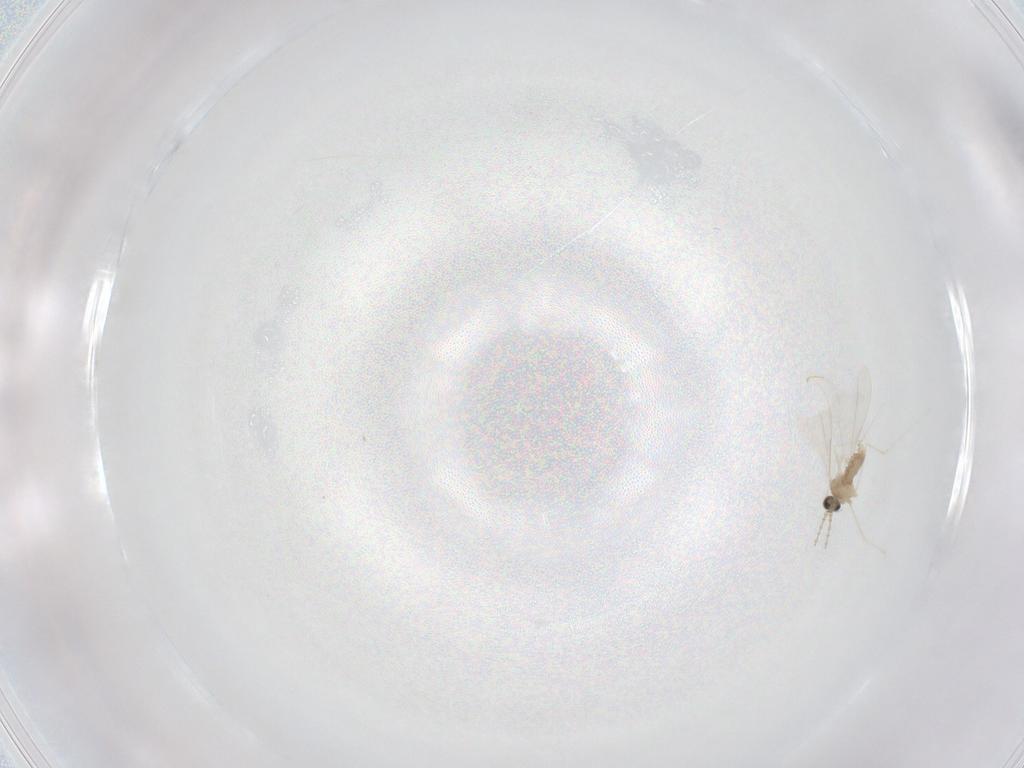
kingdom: Animalia
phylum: Arthropoda
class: Insecta
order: Diptera
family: Cecidomyiidae
